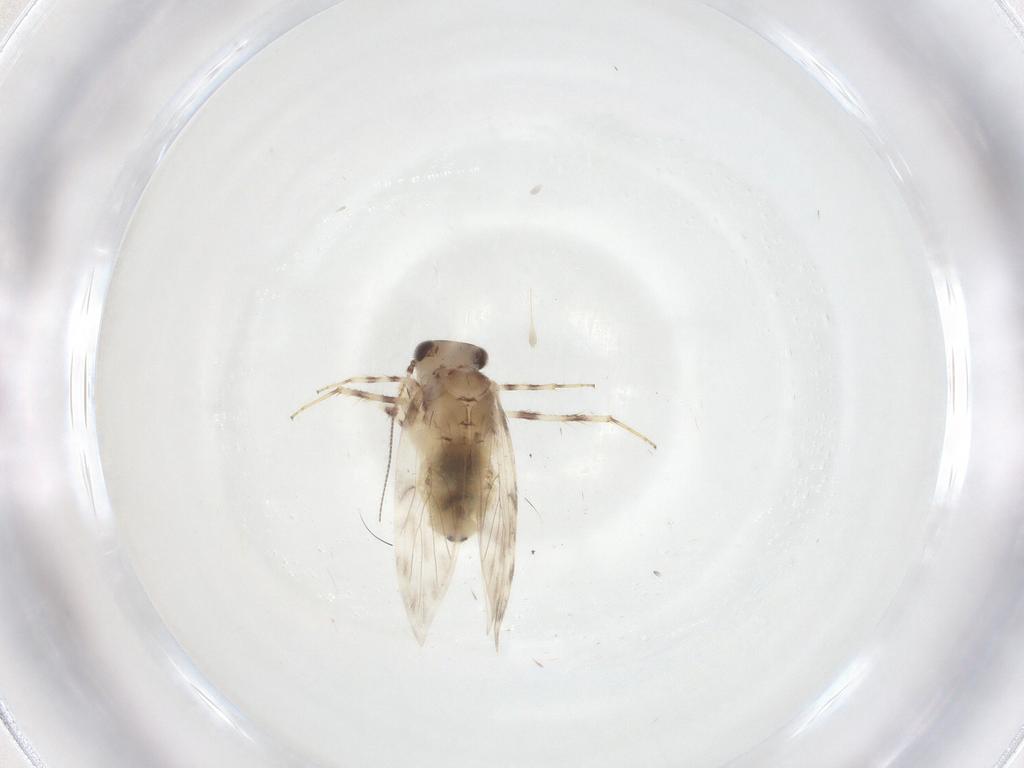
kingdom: Animalia
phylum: Arthropoda
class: Insecta
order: Psocodea
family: Lepidopsocidae
